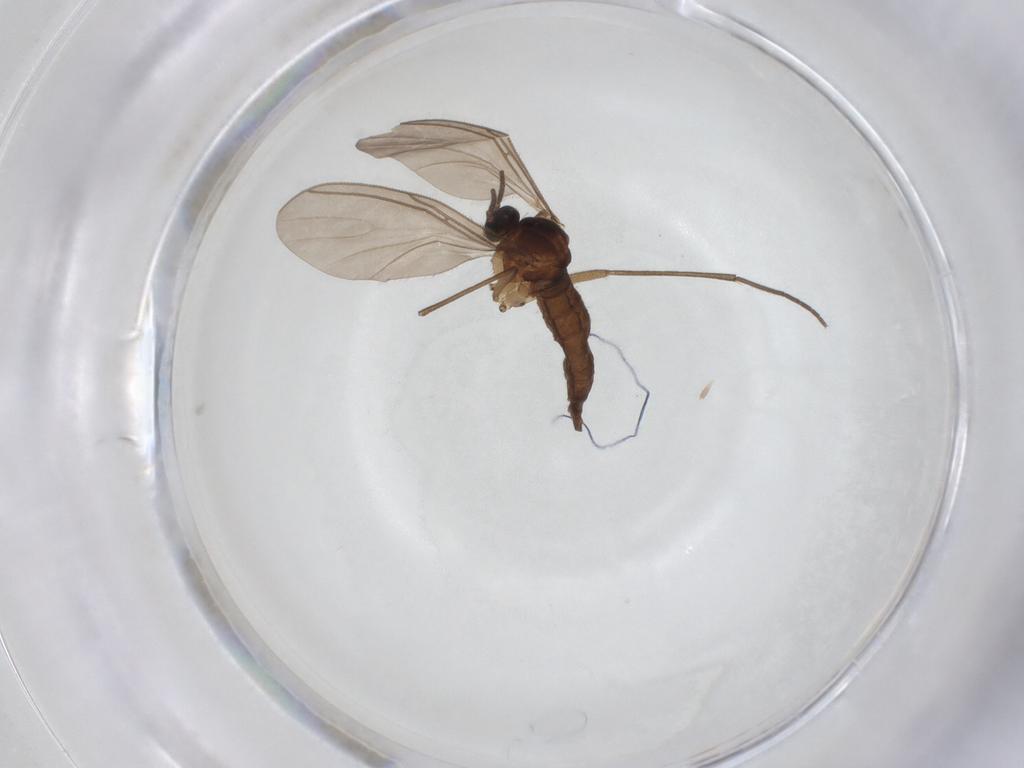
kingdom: Animalia
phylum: Arthropoda
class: Insecta
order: Diptera
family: Sciaridae
